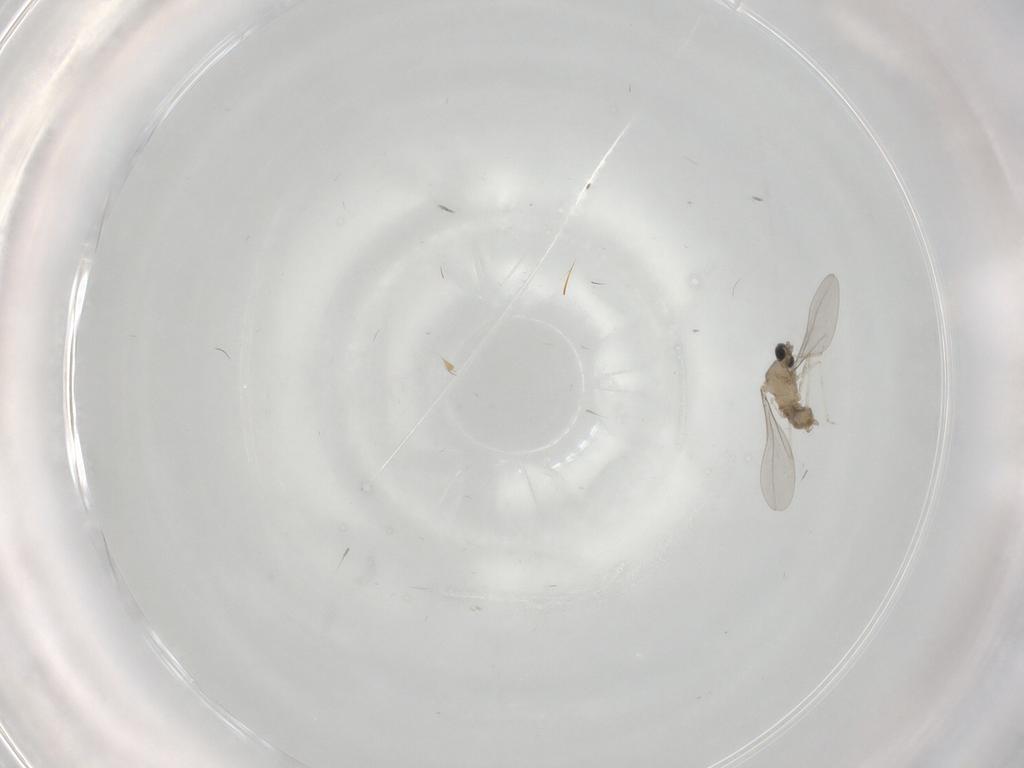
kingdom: Animalia
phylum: Arthropoda
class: Insecta
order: Diptera
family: Cecidomyiidae
